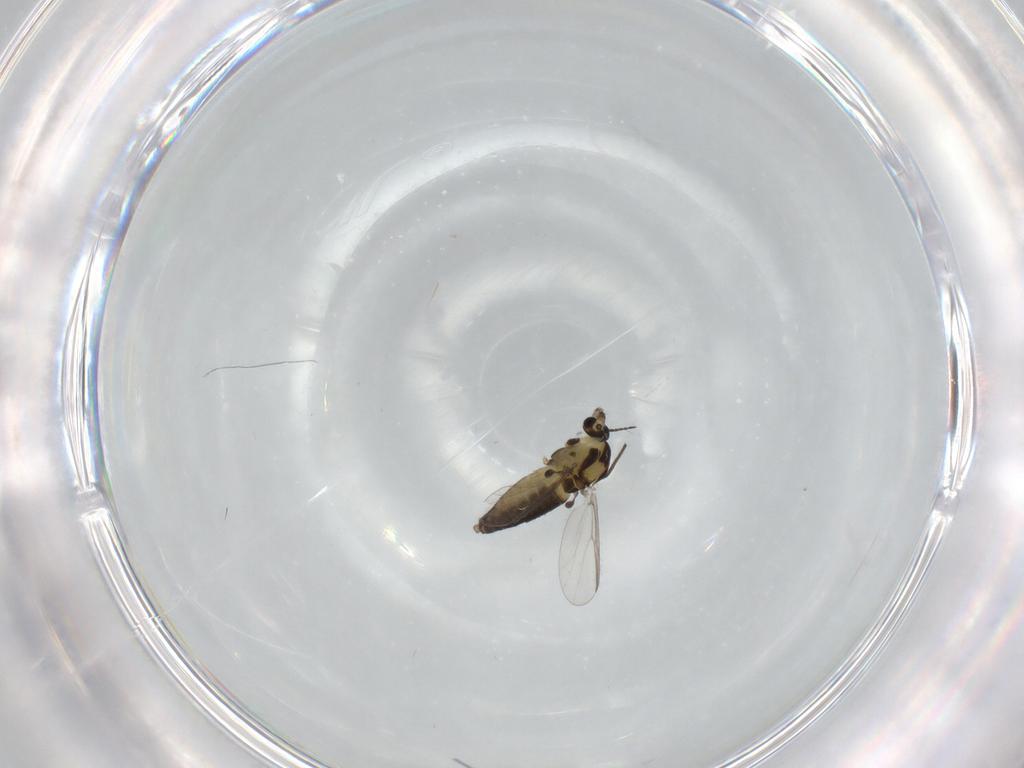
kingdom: Animalia
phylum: Arthropoda
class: Insecta
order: Diptera
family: Chironomidae
